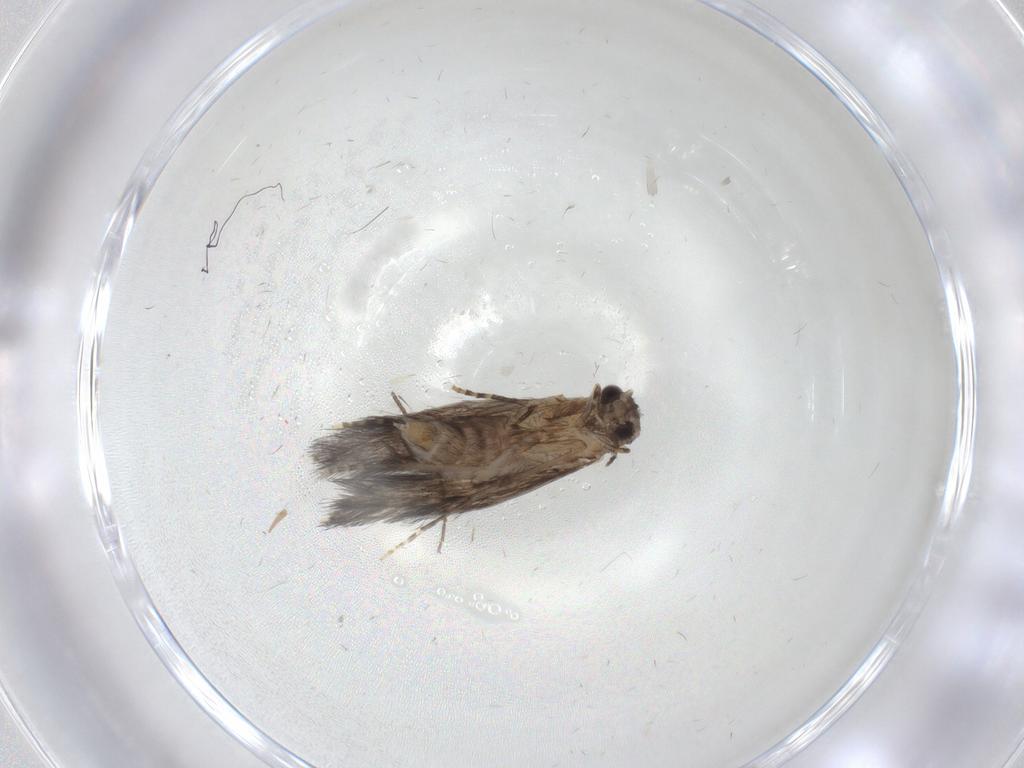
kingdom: Animalia
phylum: Arthropoda
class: Insecta
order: Trichoptera
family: Hydroptilidae
